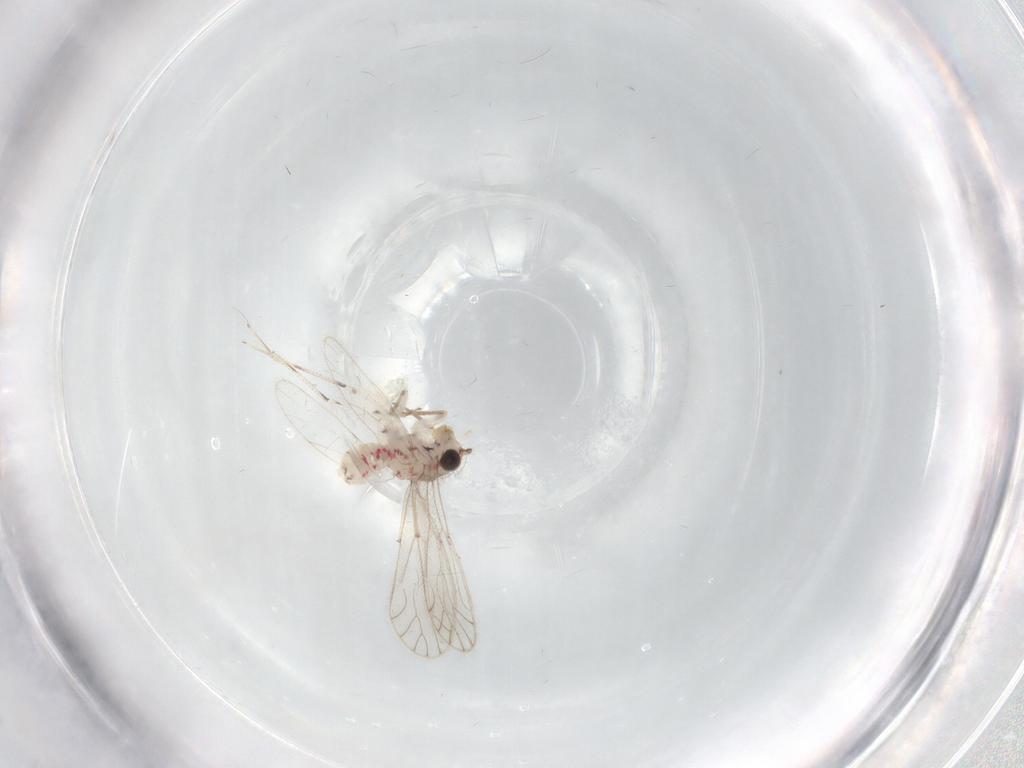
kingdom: Animalia
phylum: Arthropoda
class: Insecta
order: Psocodea
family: Caeciliusidae
